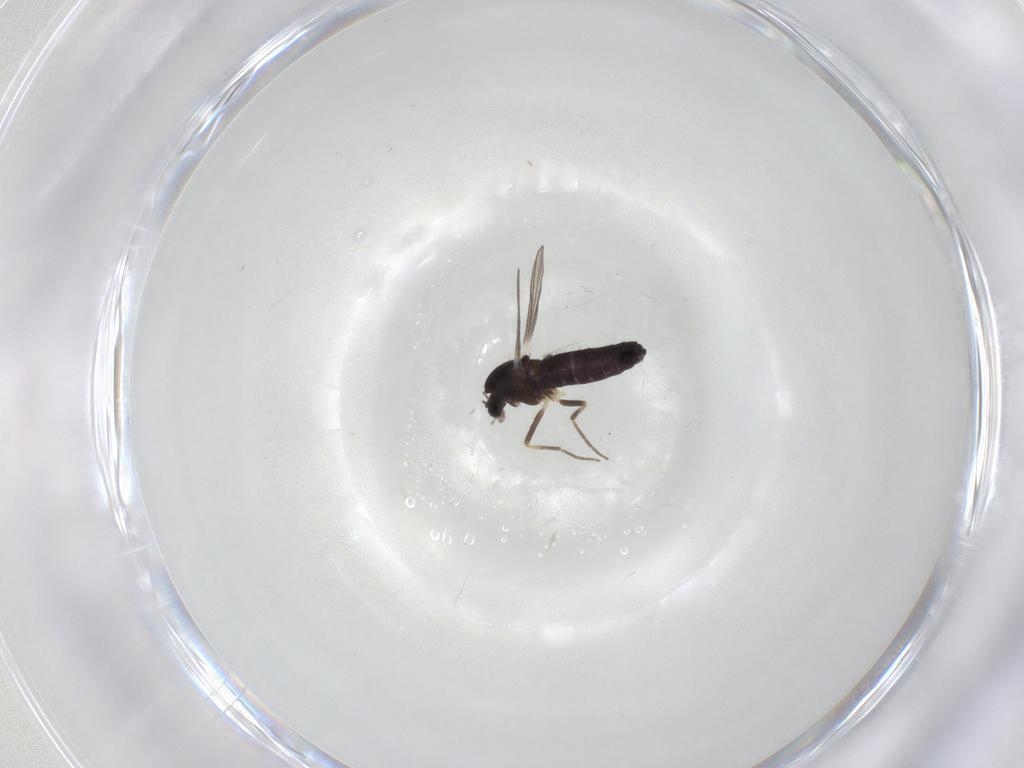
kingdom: Animalia
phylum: Arthropoda
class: Insecta
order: Diptera
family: Chironomidae
